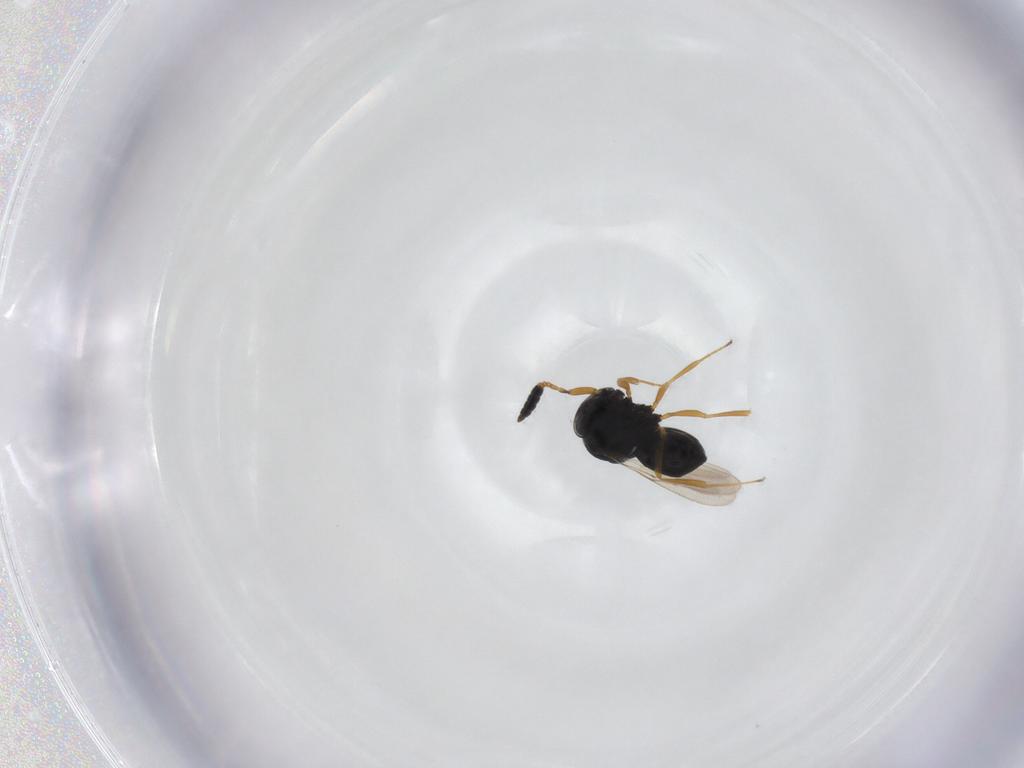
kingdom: Animalia
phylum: Arthropoda
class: Insecta
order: Hymenoptera
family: Scelionidae
